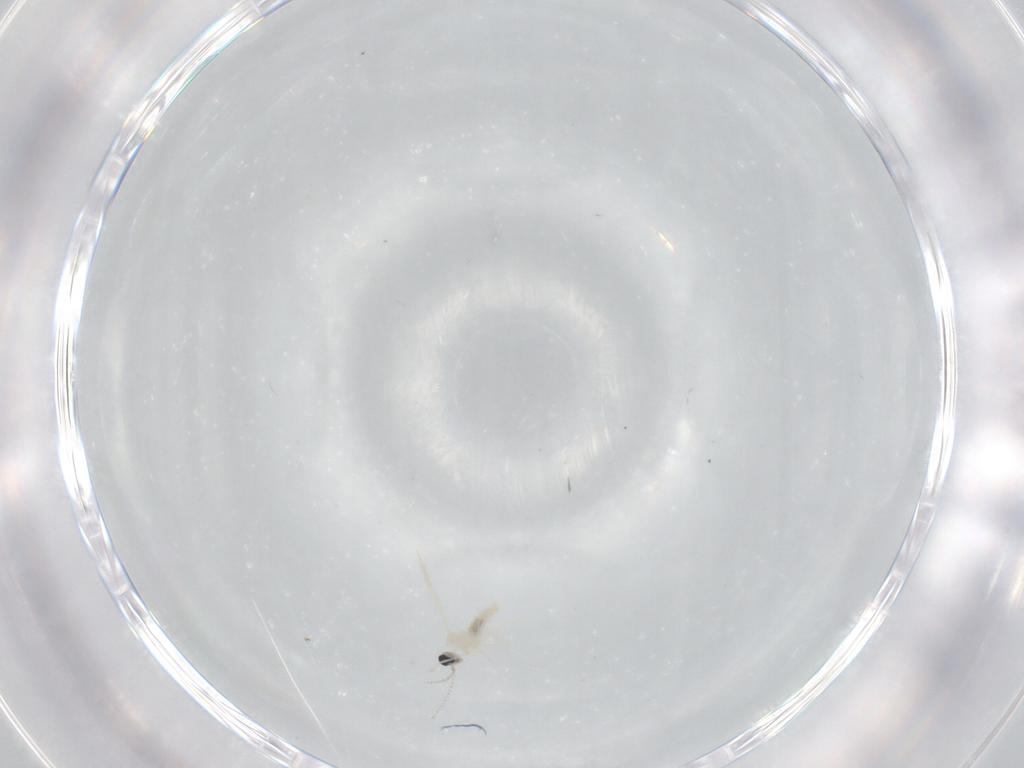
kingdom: Animalia
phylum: Arthropoda
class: Insecta
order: Diptera
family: Cecidomyiidae
